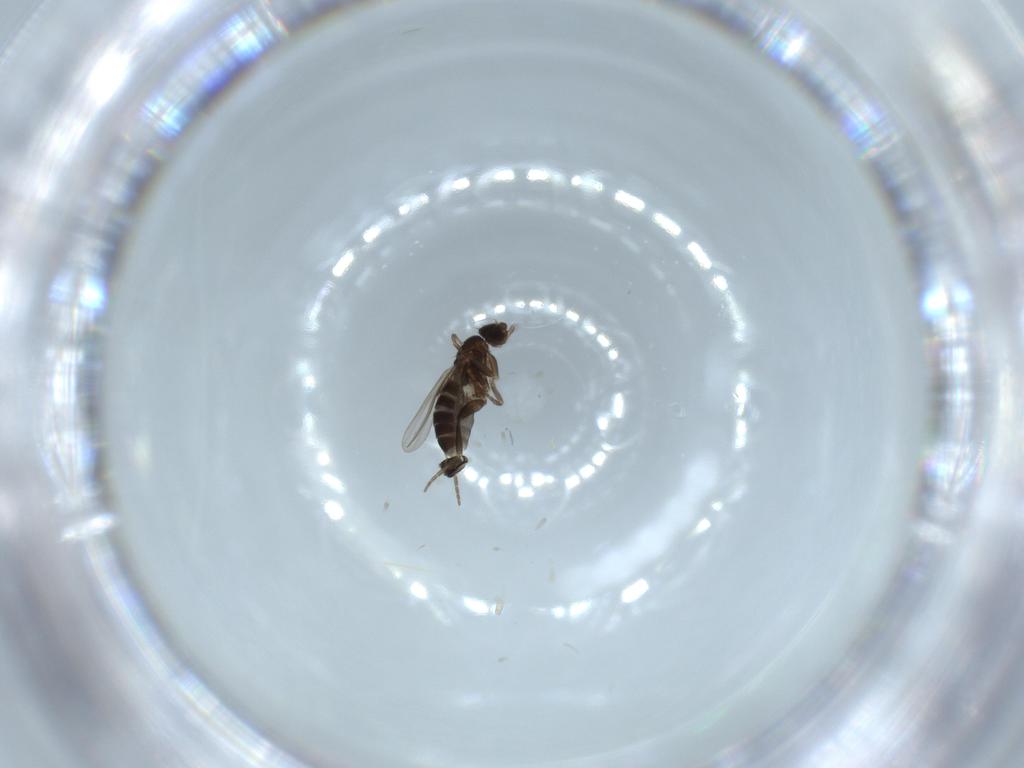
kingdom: Animalia
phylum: Arthropoda
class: Insecta
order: Diptera
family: Phoridae
